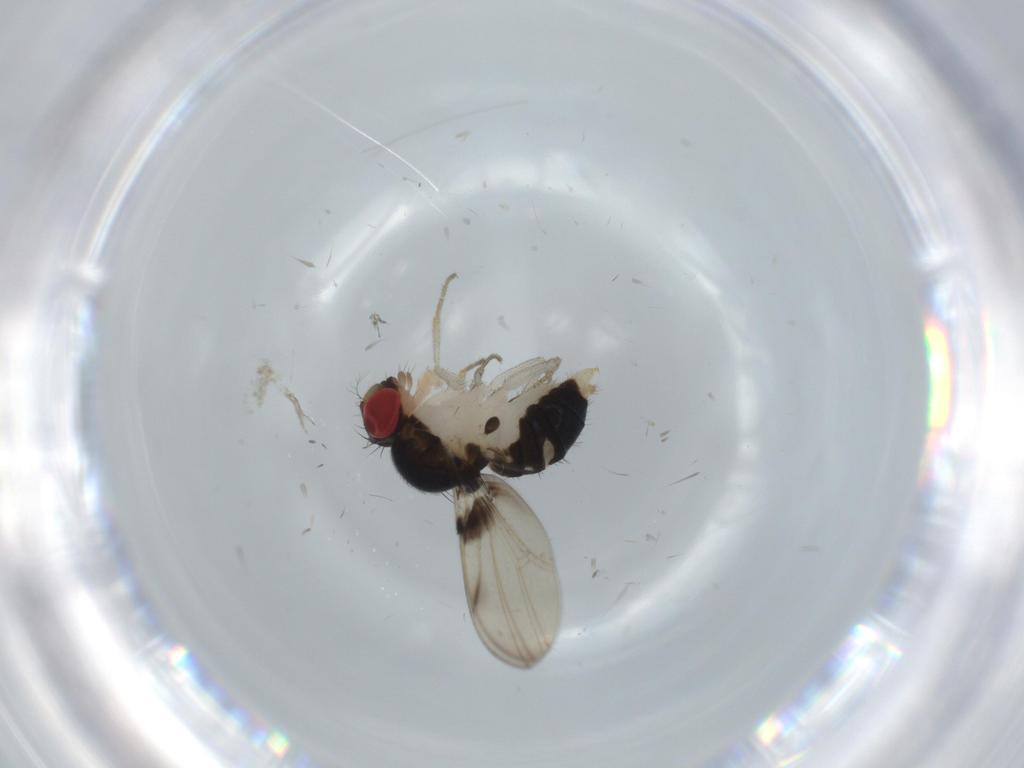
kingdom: Animalia
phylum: Arthropoda
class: Insecta
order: Diptera
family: Drosophilidae
